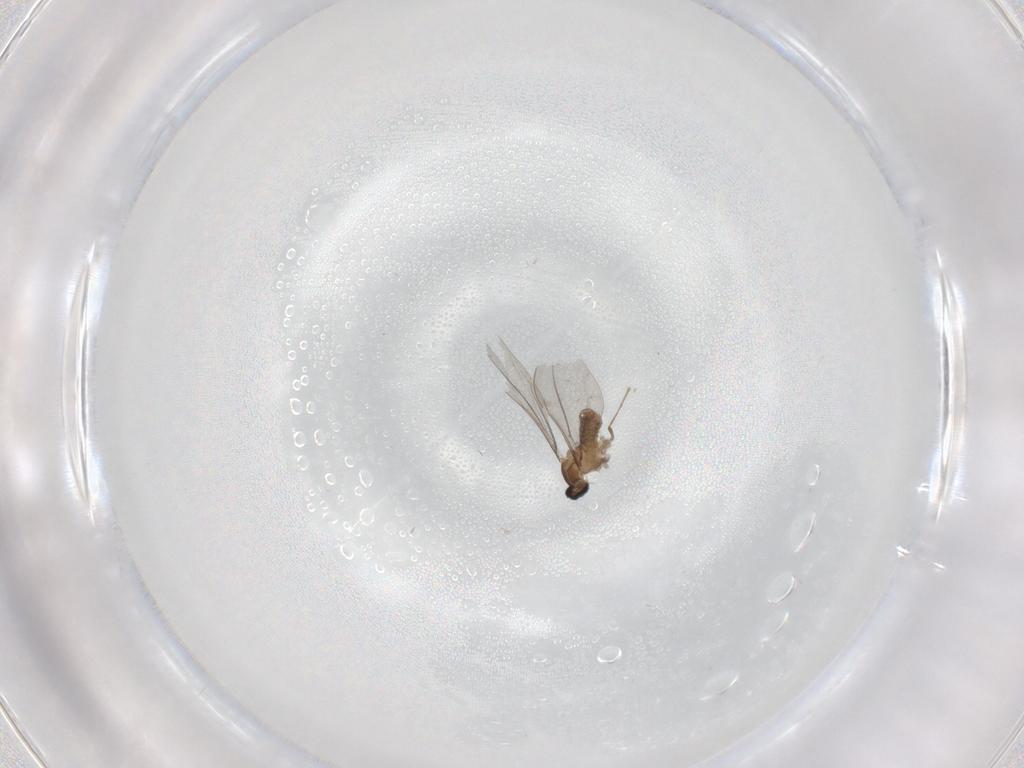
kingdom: Animalia
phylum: Arthropoda
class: Insecta
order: Diptera
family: Cecidomyiidae
